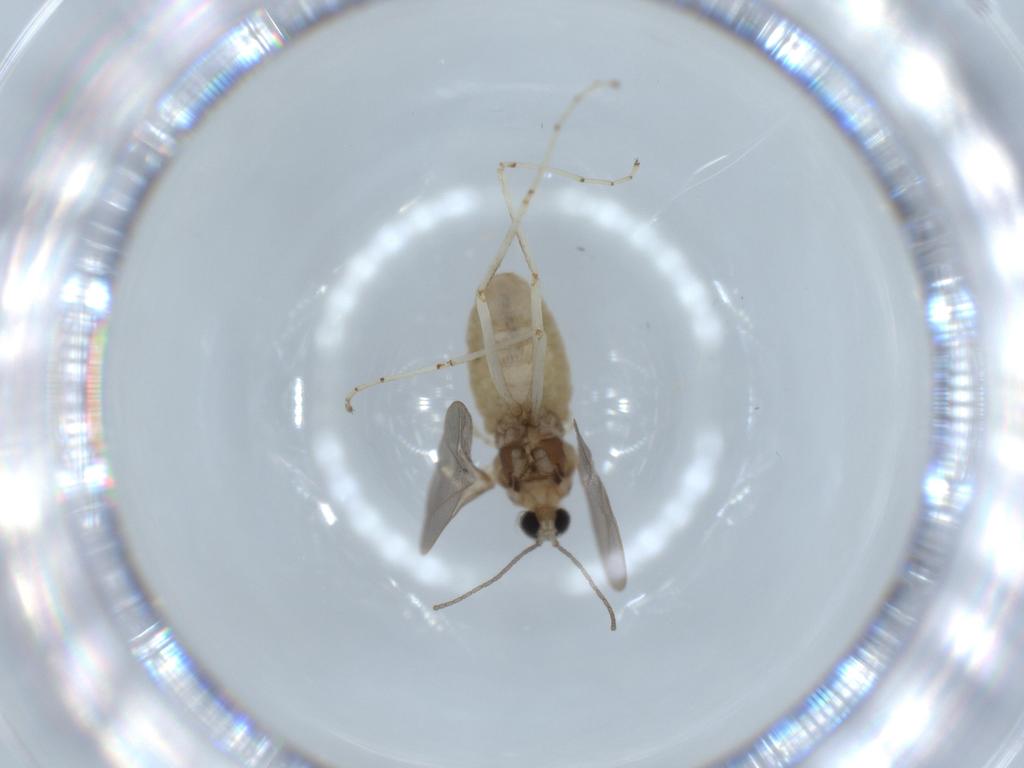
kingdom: Animalia
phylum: Arthropoda
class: Insecta
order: Diptera
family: Cecidomyiidae
